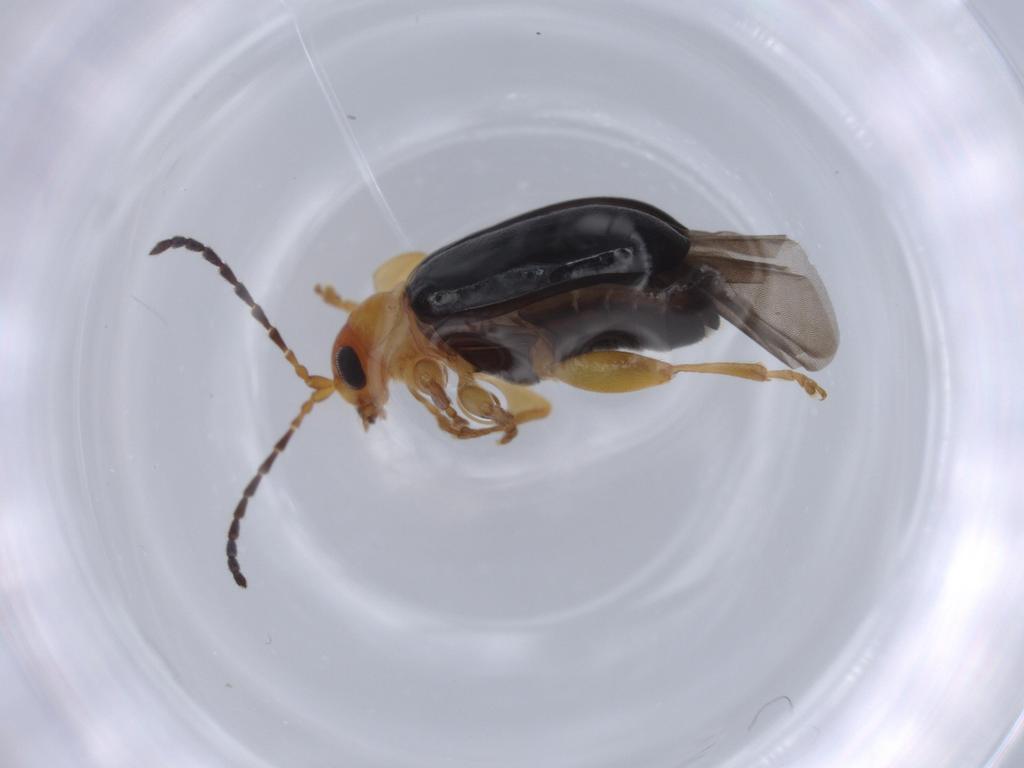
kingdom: Animalia
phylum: Arthropoda
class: Insecta
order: Coleoptera
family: Chrysomelidae
